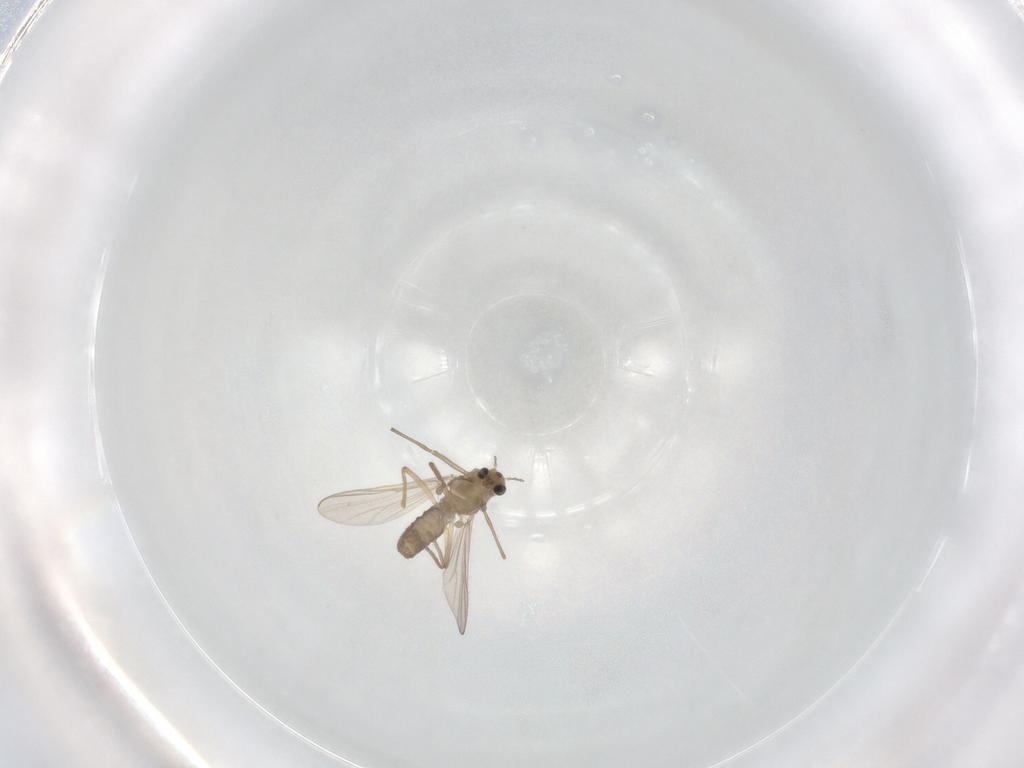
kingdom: Animalia
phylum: Arthropoda
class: Insecta
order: Diptera
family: Chironomidae
